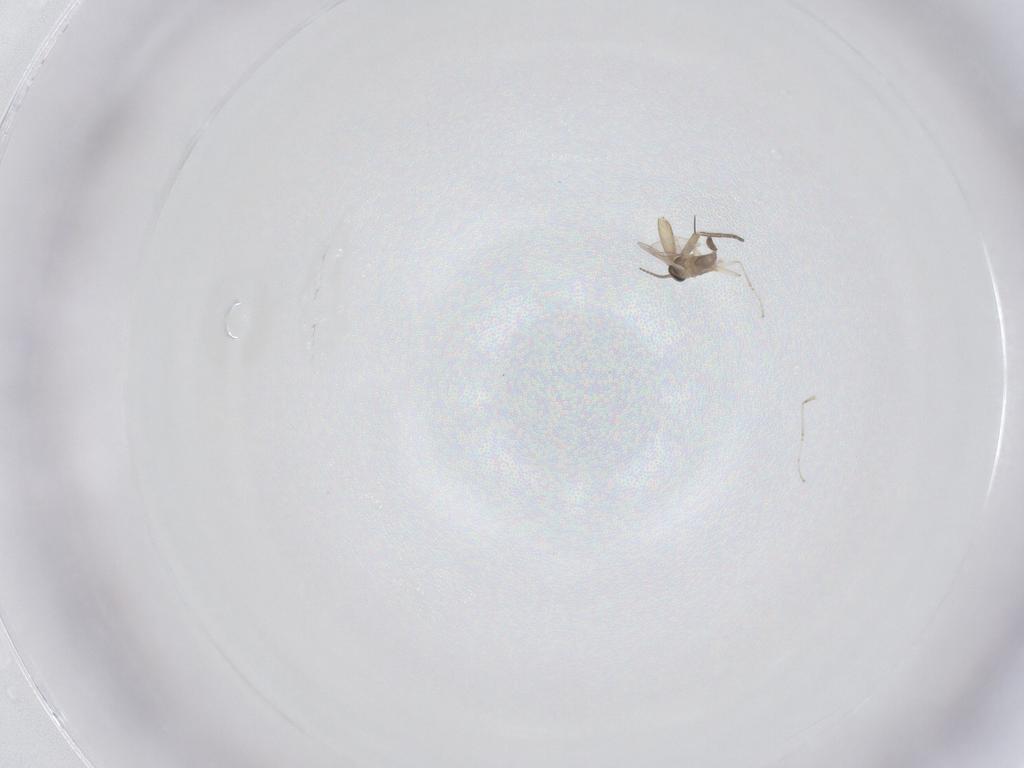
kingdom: Animalia
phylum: Arthropoda
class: Insecta
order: Diptera
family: Phoridae
